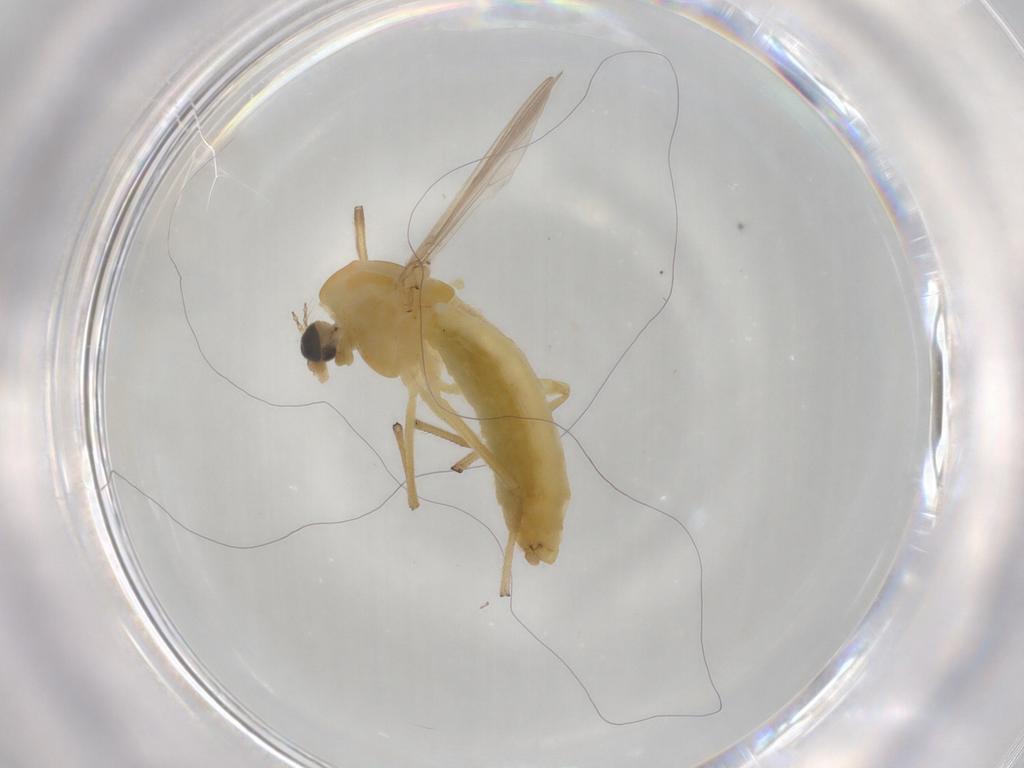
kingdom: Animalia
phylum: Arthropoda
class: Insecta
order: Diptera
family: Chironomidae
